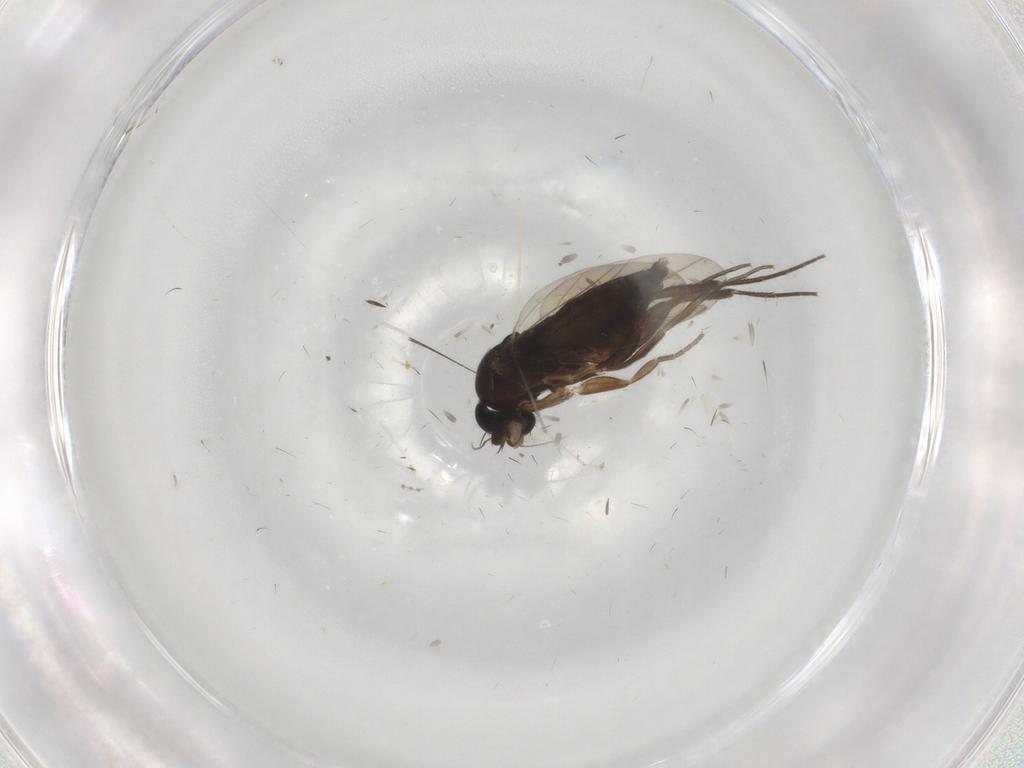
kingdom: Animalia
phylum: Arthropoda
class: Insecta
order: Diptera
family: Phoridae
